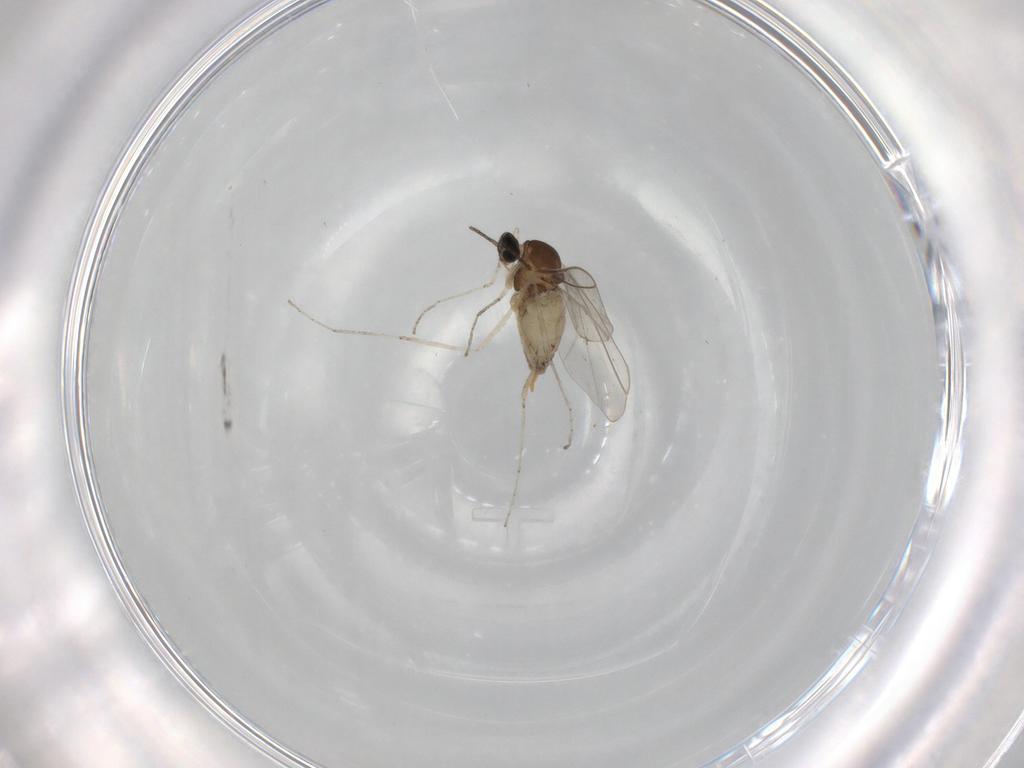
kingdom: Animalia
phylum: Arthropoda
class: Insecta
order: Diptera
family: Cecidomyiidae
